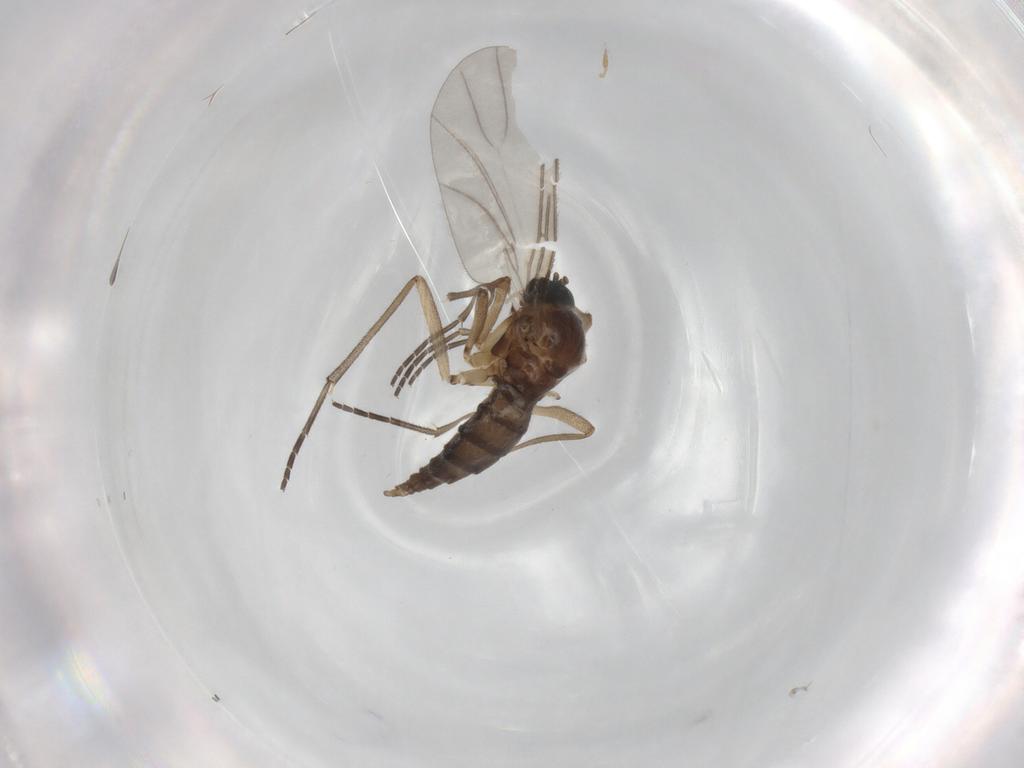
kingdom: Animalia
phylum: Arthropoda
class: Insecta
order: Diptera
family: Sciaridae
